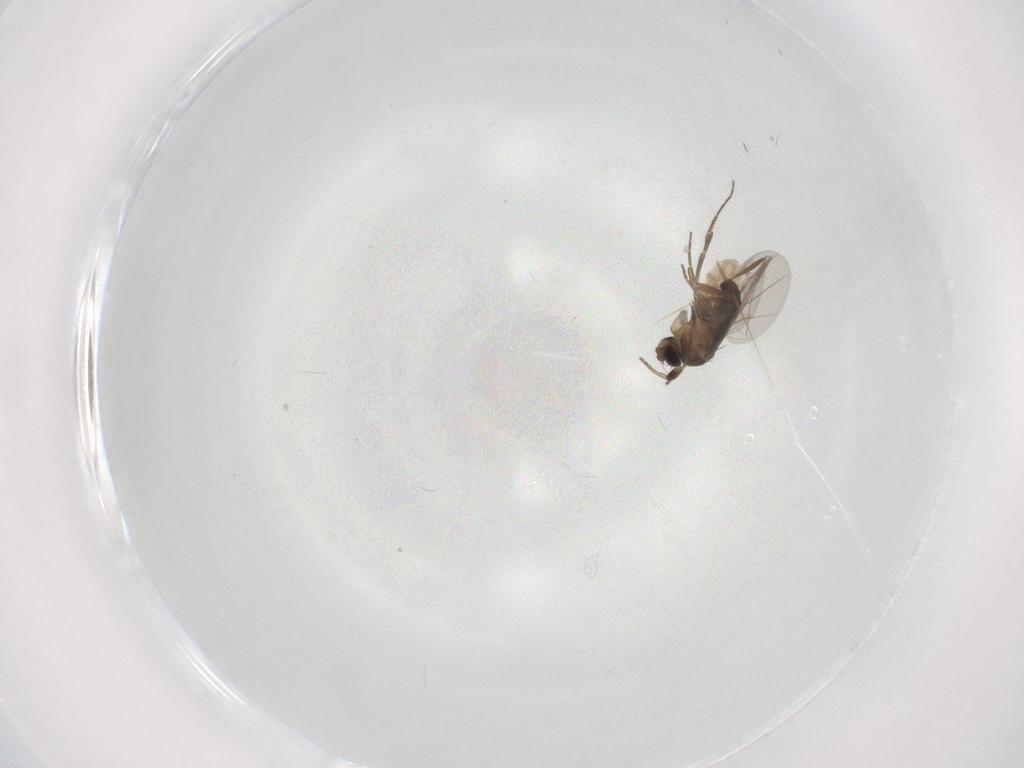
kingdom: Animalia
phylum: Arthropoda
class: Insecta
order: Diptera
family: Phoridae
